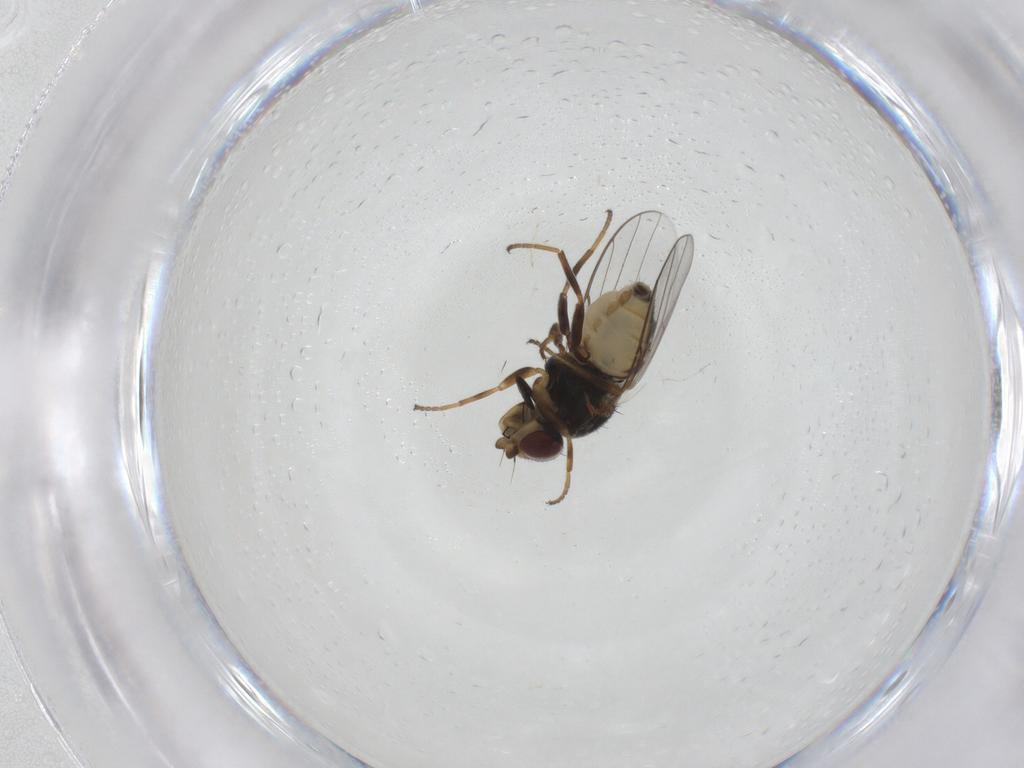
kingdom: Animalia
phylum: Arthropoda
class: Insecta
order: Diptera
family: Chloropidae
